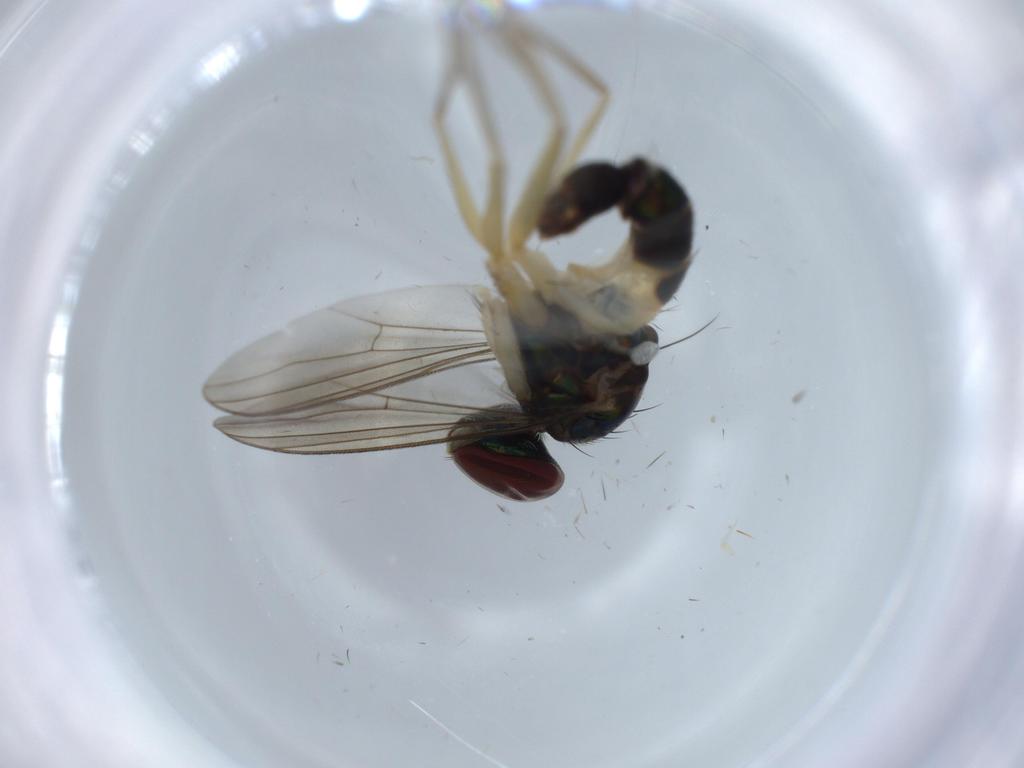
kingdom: Animalia
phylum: Arthropoda
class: Insecta
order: Diptera
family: Dolichopodidae
